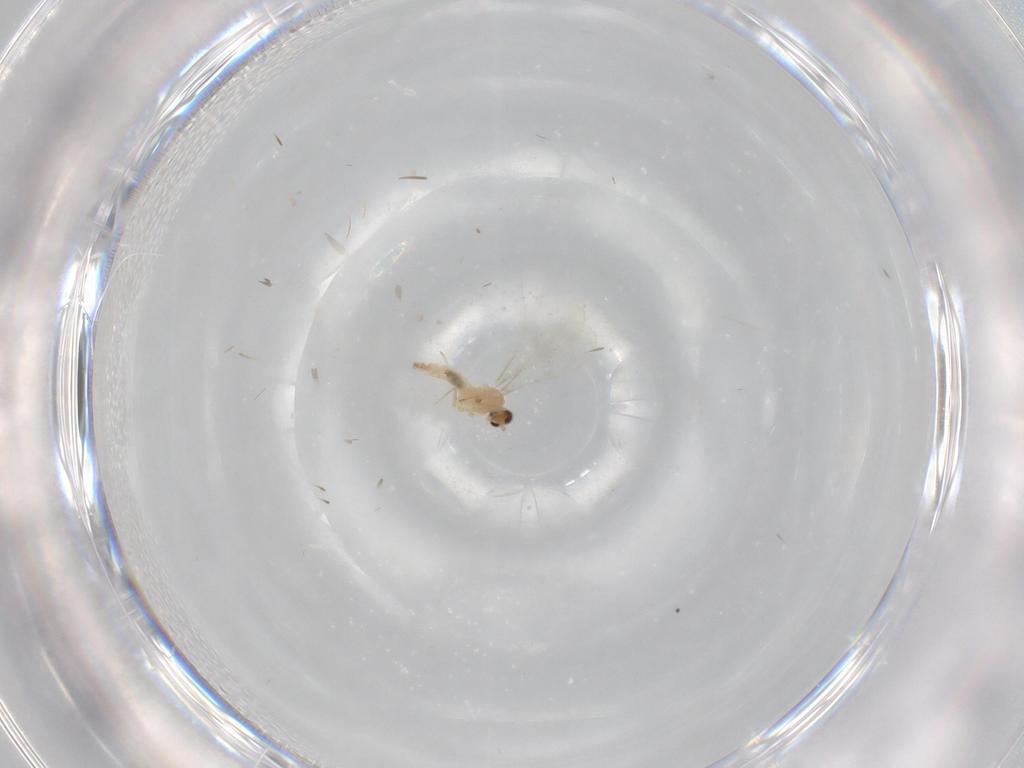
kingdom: Animalia
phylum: Arthropoda
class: Insecta
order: Diptera
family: Cecidomyiidae
